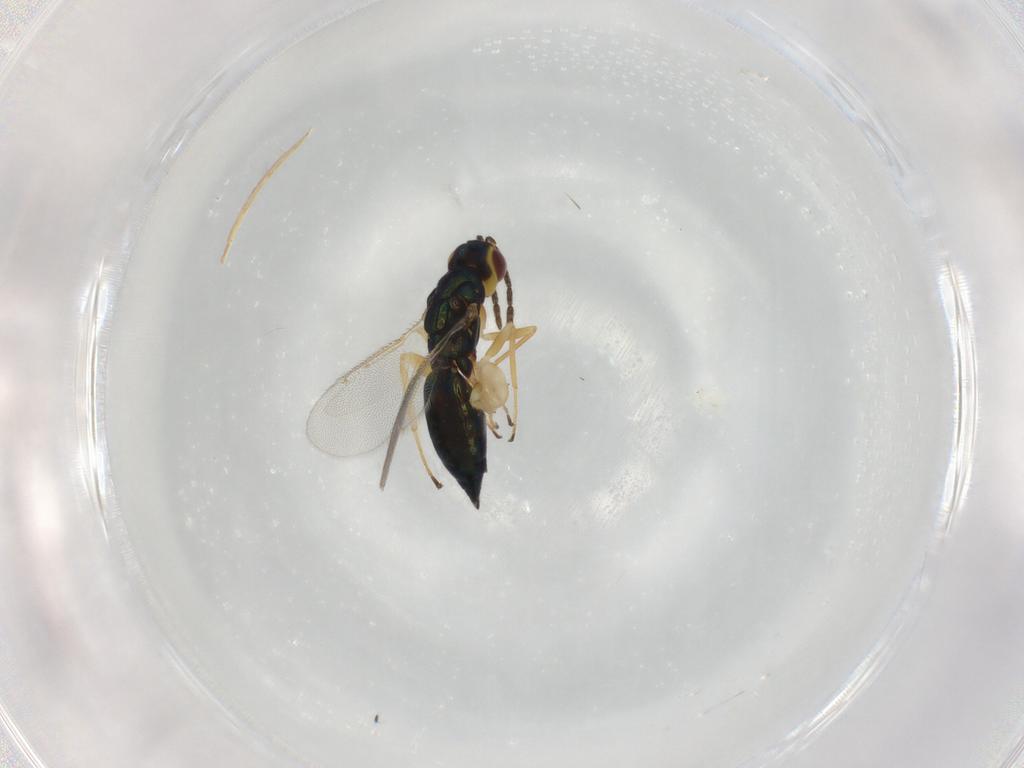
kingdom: Animalia
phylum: Arthropoda
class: Insecta
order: Hymenoptera
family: Eulophidae
